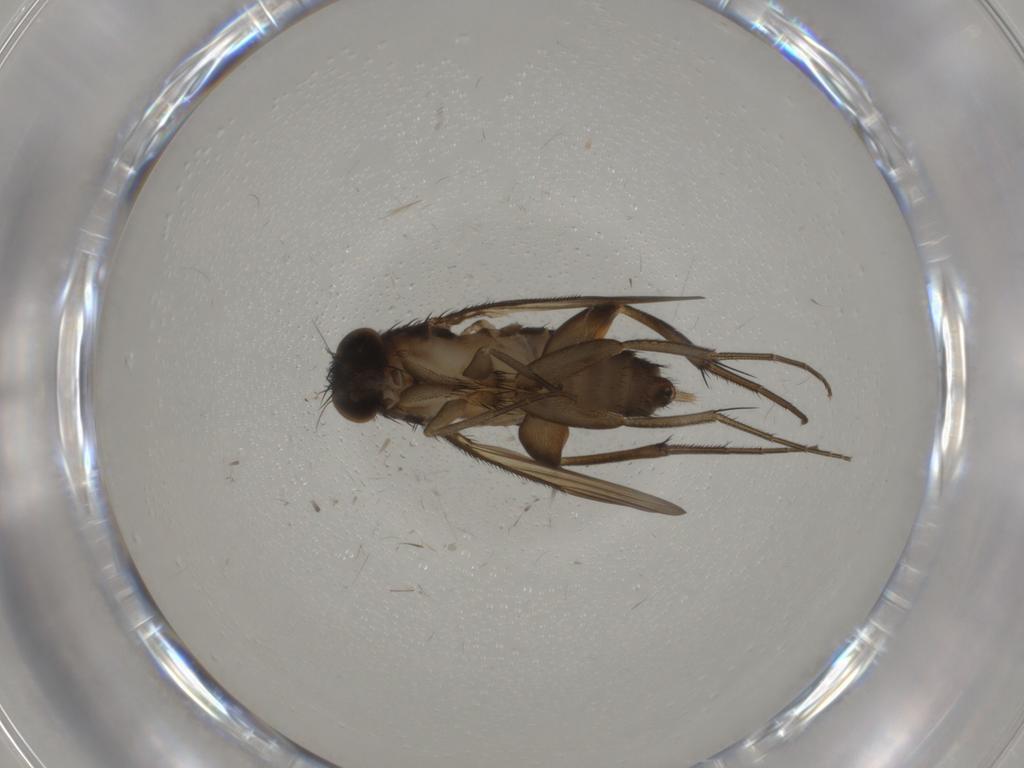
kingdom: Animalia
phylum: Arthropoda
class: Insecta
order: Diptera
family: Phoridae
